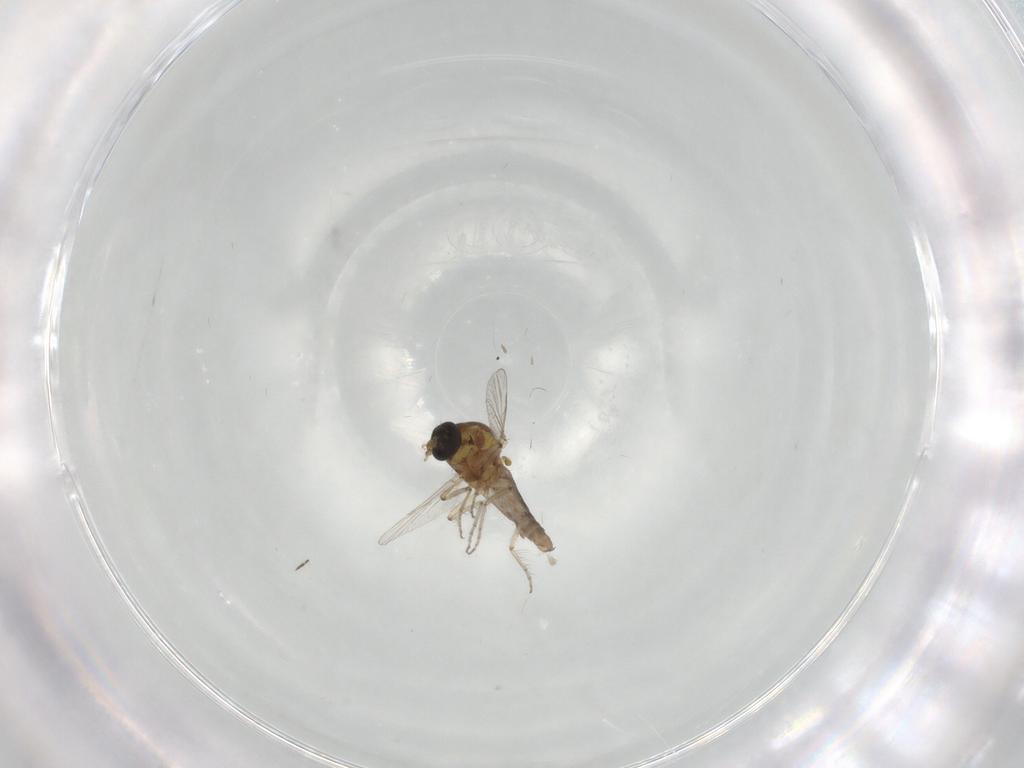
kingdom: Animalia
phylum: Arthropoda
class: Insecta
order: Diptera
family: Ceratopogonidae
